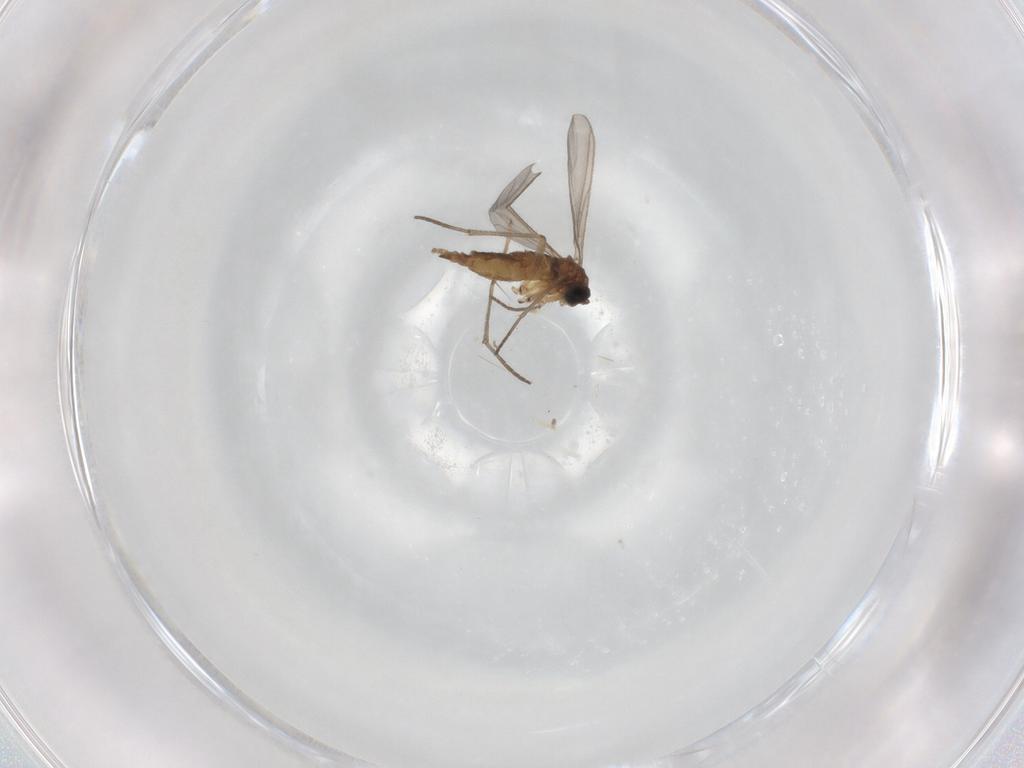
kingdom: Animalia
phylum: Arthropoda
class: Insecta
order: Diptera
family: Sciaridae
